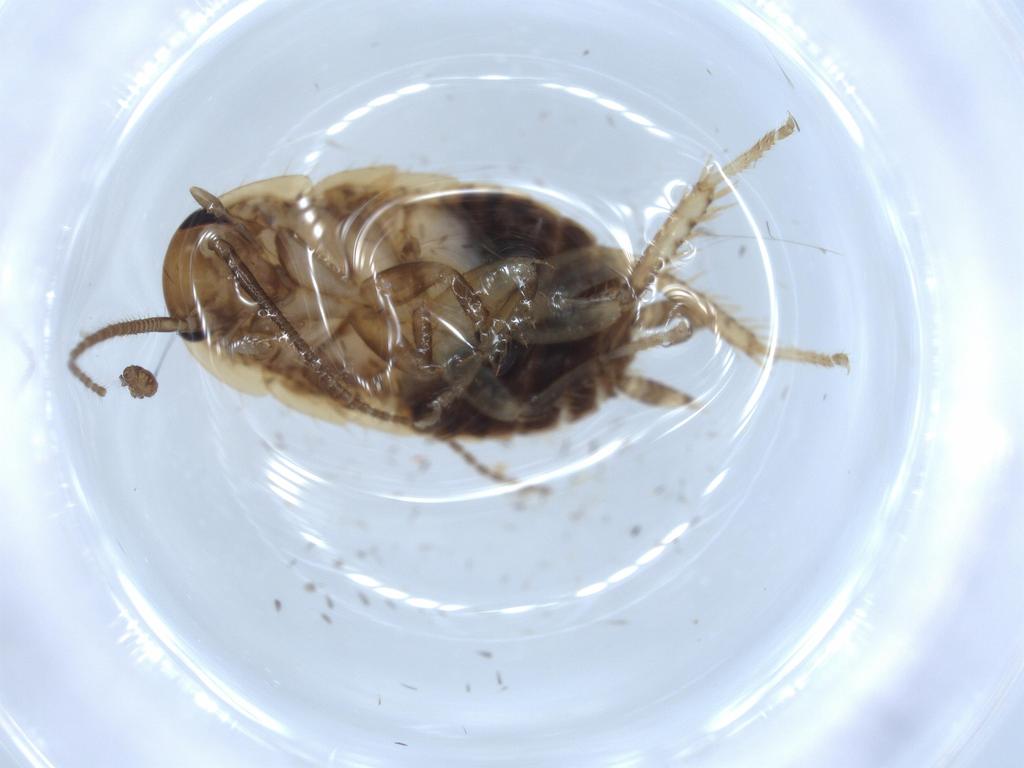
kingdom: Animalia
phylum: Arthropoda
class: Insecta
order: Blattodea
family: Ectobiidae
